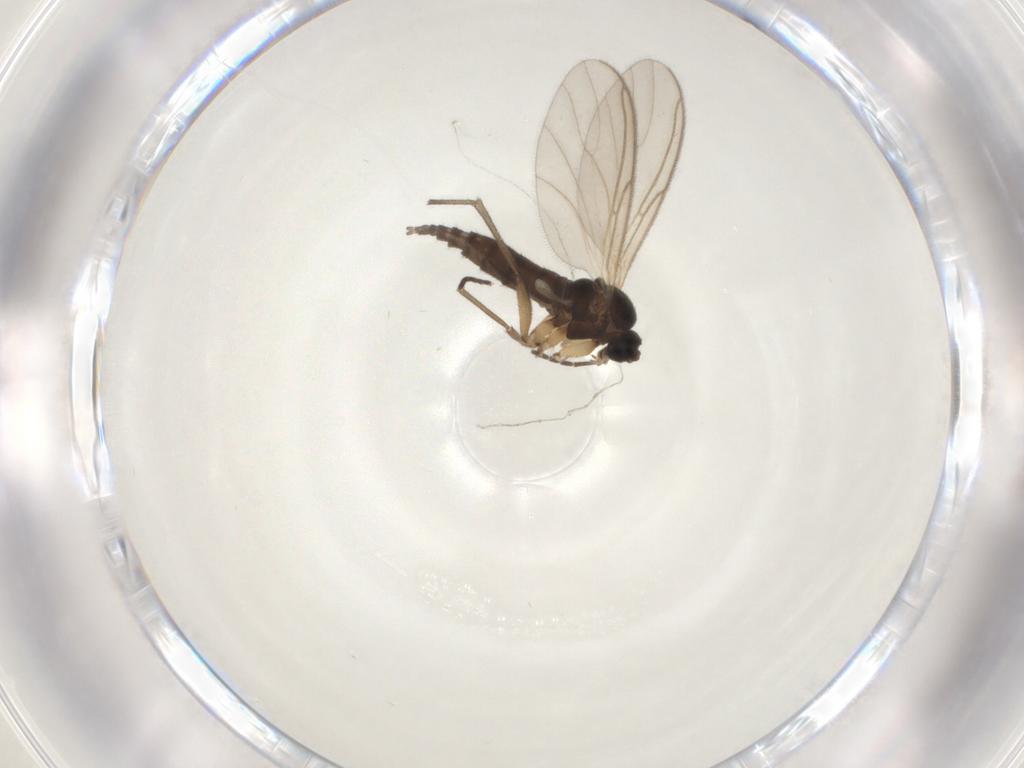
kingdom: Animalia
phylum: Arthropoda
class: Insecta
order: Diptera
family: Sciaridae
